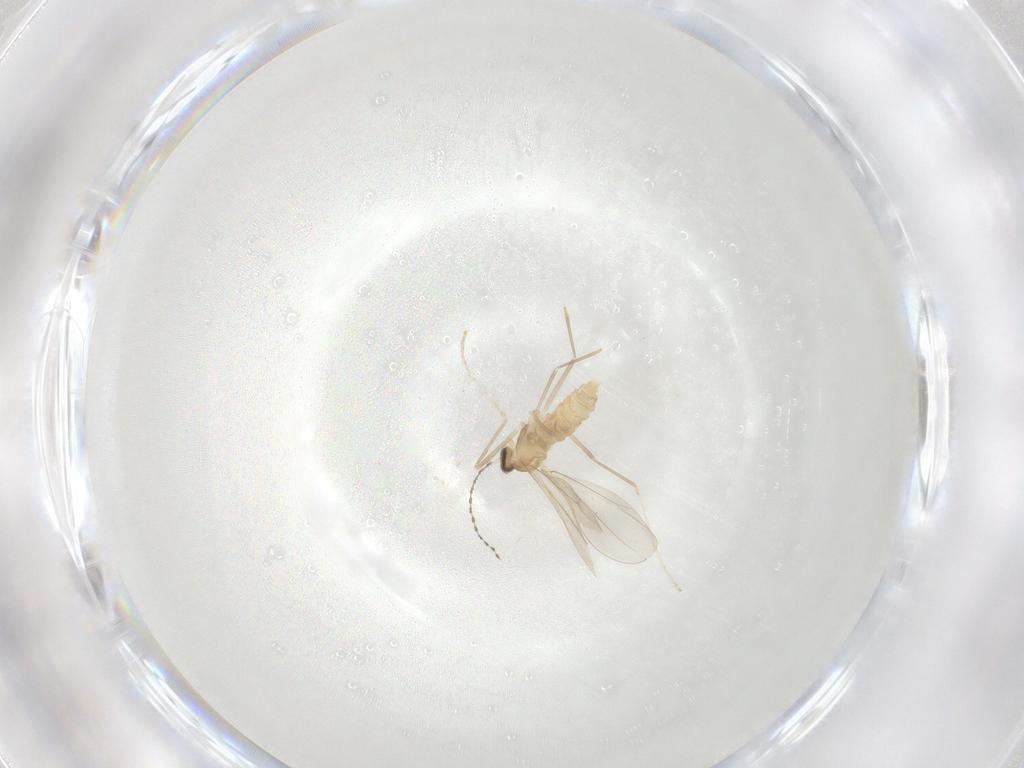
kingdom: Animalia
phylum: Arthropoda
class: Insecta
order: Diptera
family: Cecidomyiidae
